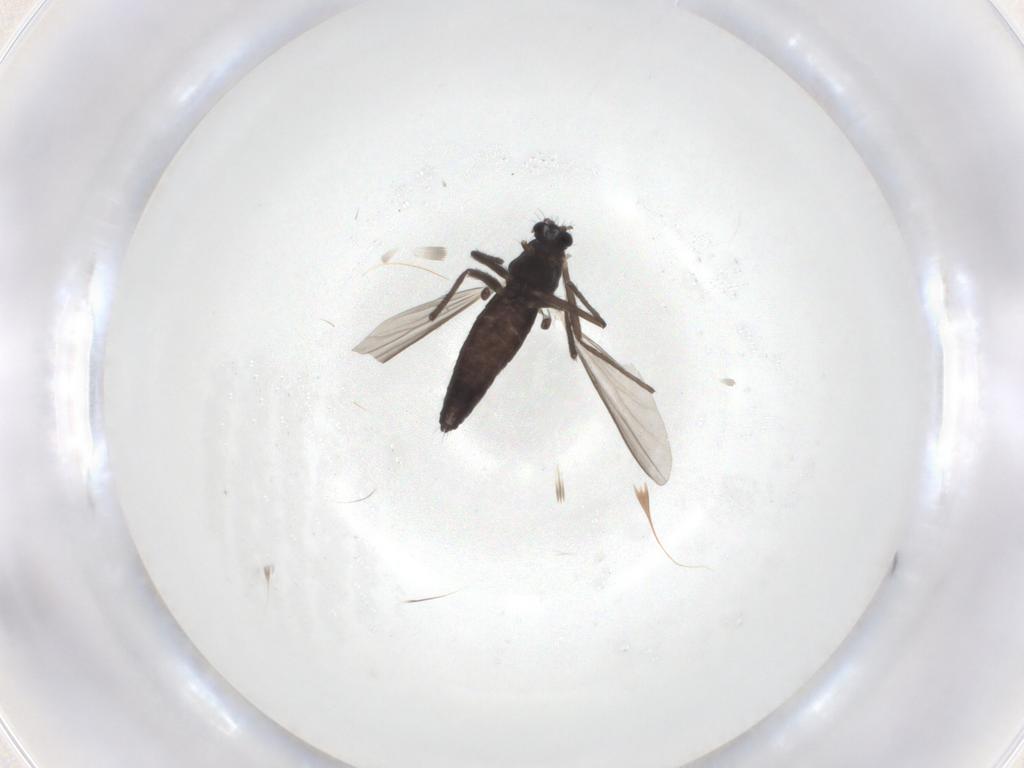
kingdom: Animalia
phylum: Arthropoda
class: Insecta
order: Diptera
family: Chironomidae
